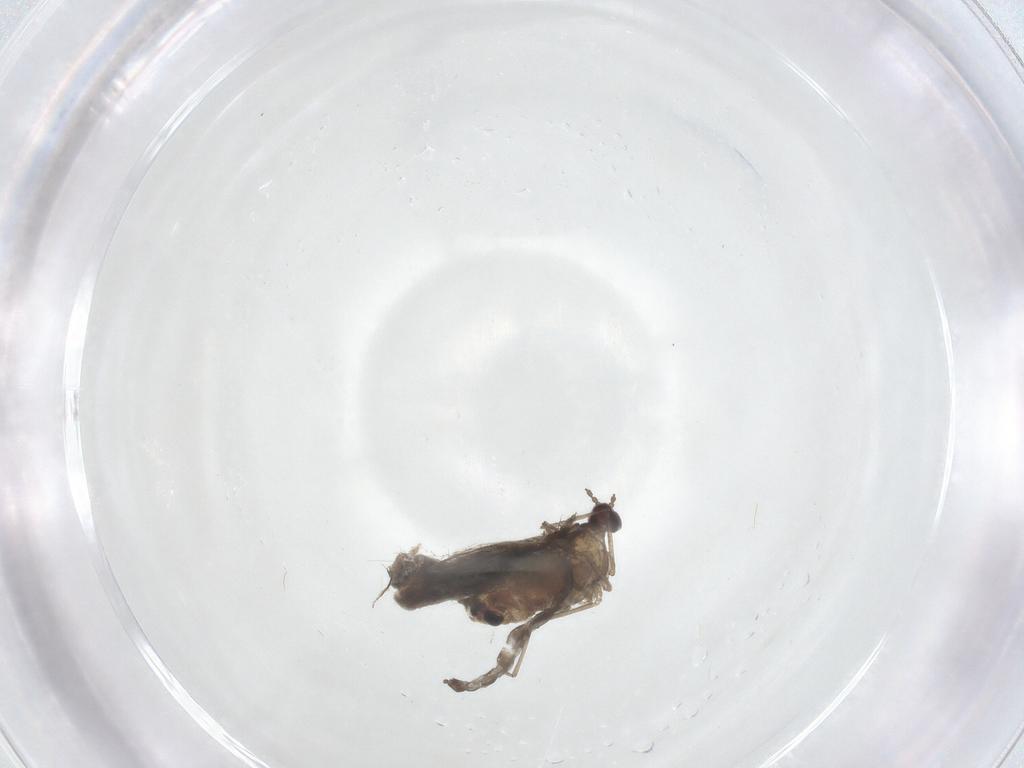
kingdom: Animalia
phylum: Arthropoda
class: Insecta
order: Diptera
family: Cecidomyiidae
